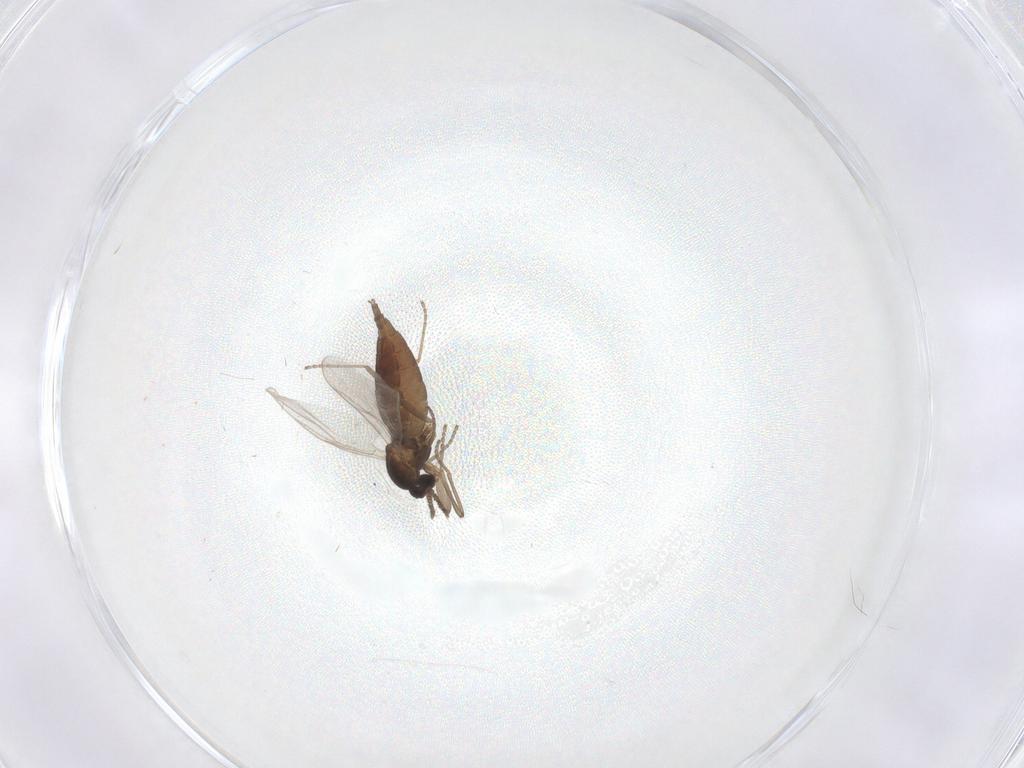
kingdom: Animalia
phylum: Arthropoda
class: Insecta
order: Diptera
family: Cecidomyiidae
